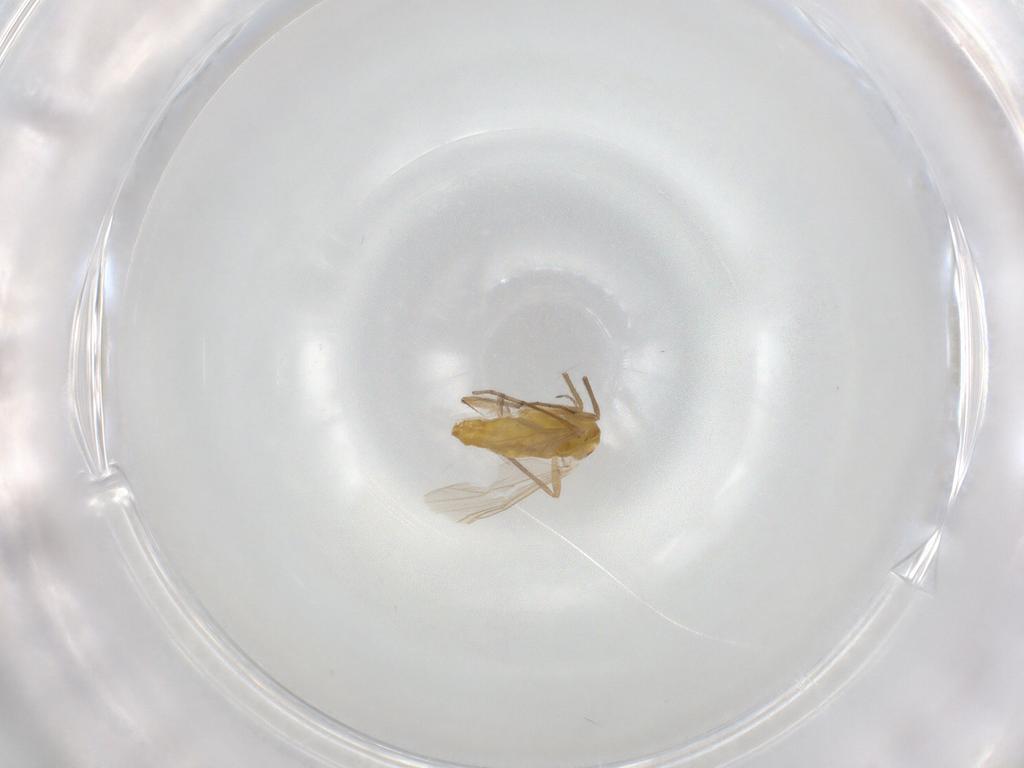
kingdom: Animalia
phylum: Arthropoda
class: Insecta
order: Diptera
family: Chironomidae
